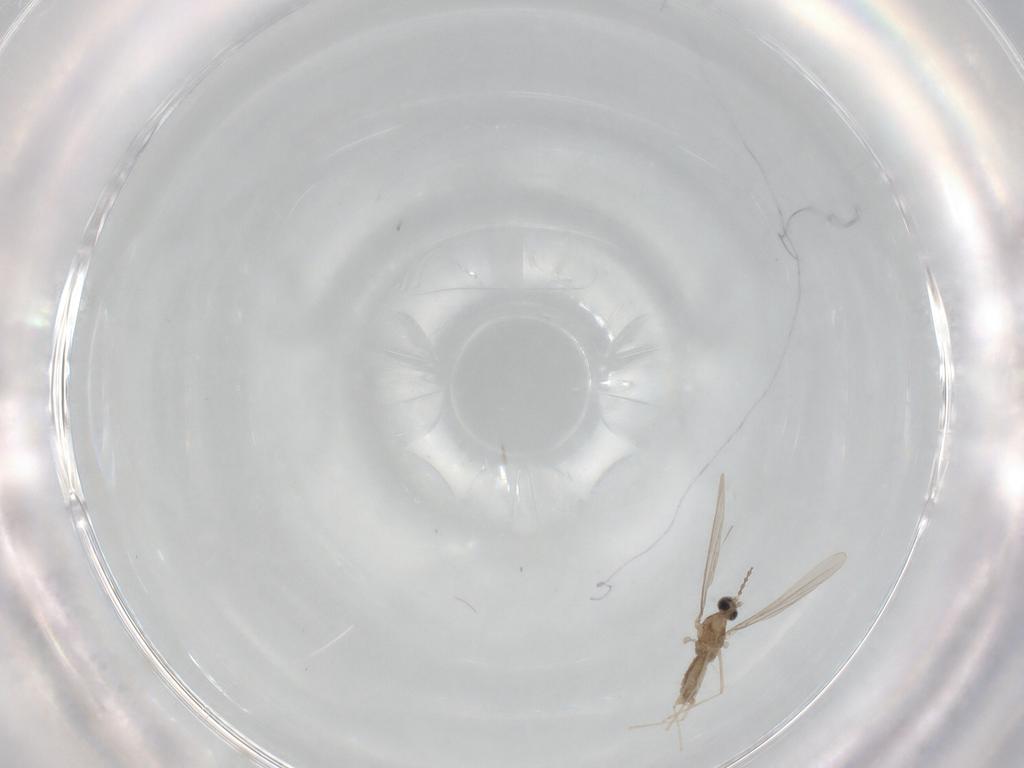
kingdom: Animalia
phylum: Arthropoda
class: Insecta
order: Diptera
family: Cecidomyiidae
